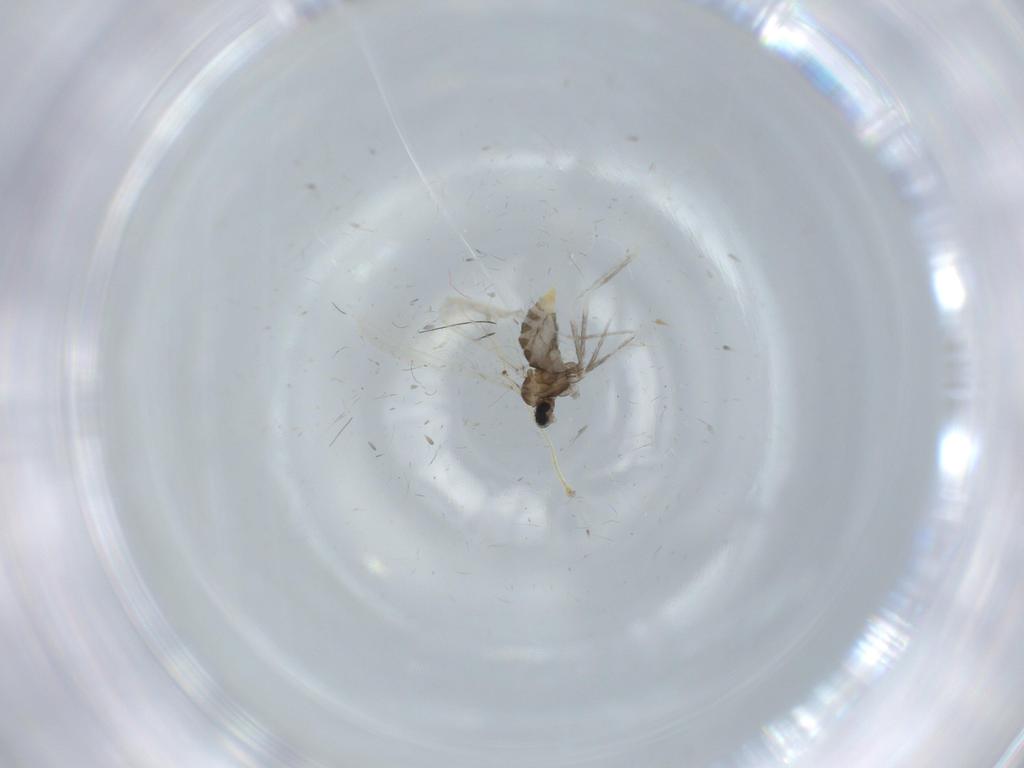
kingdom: Animalia
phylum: Arthropoda
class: Insecta
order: Diptera
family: Cecidomyiidae
